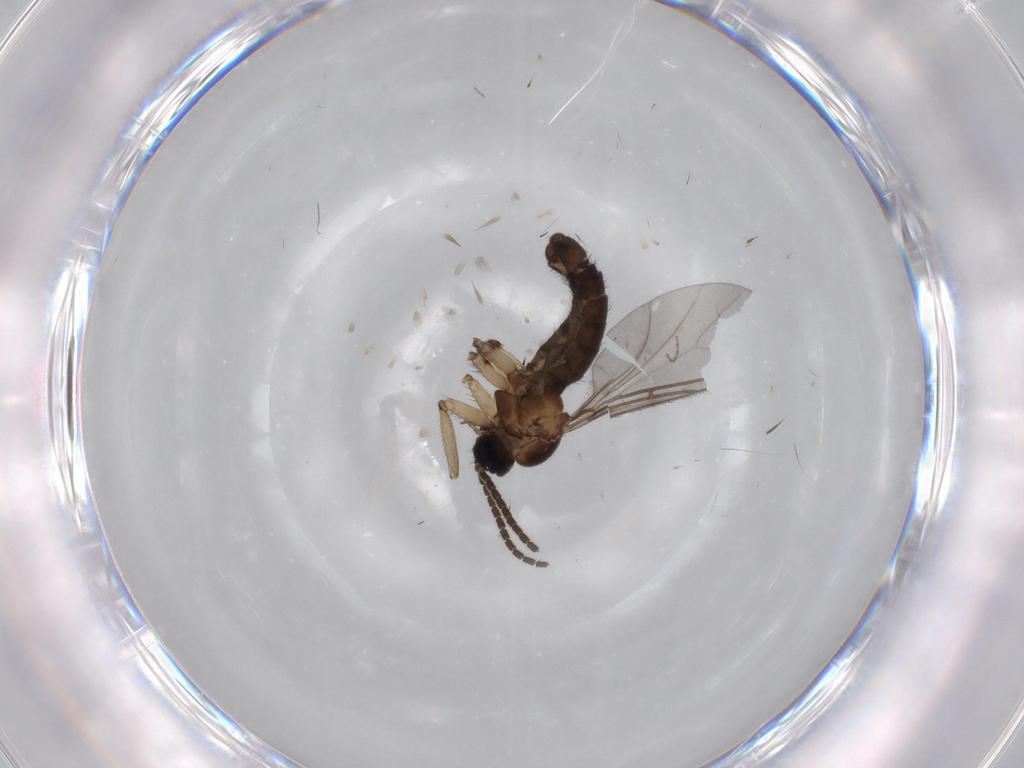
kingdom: Animalia
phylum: Arthropoda
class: Insecta
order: Diptera
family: Sciaridae
